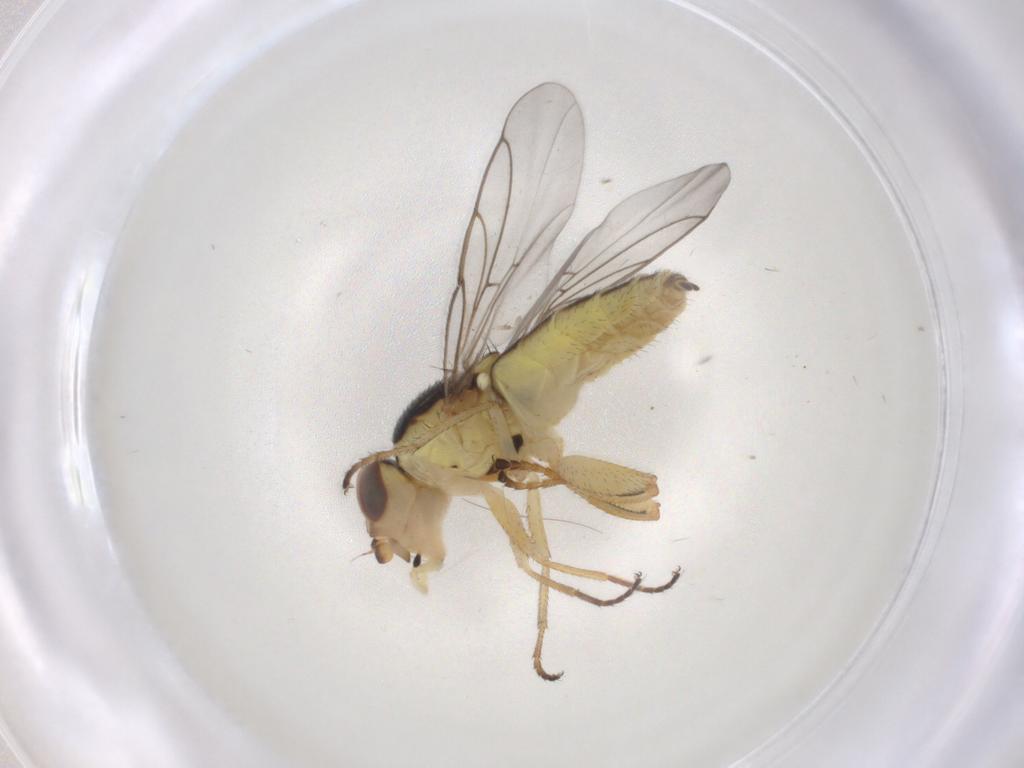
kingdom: Animalia
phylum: Arthropoda
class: Insecta
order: Diptera
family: Chloropidae
